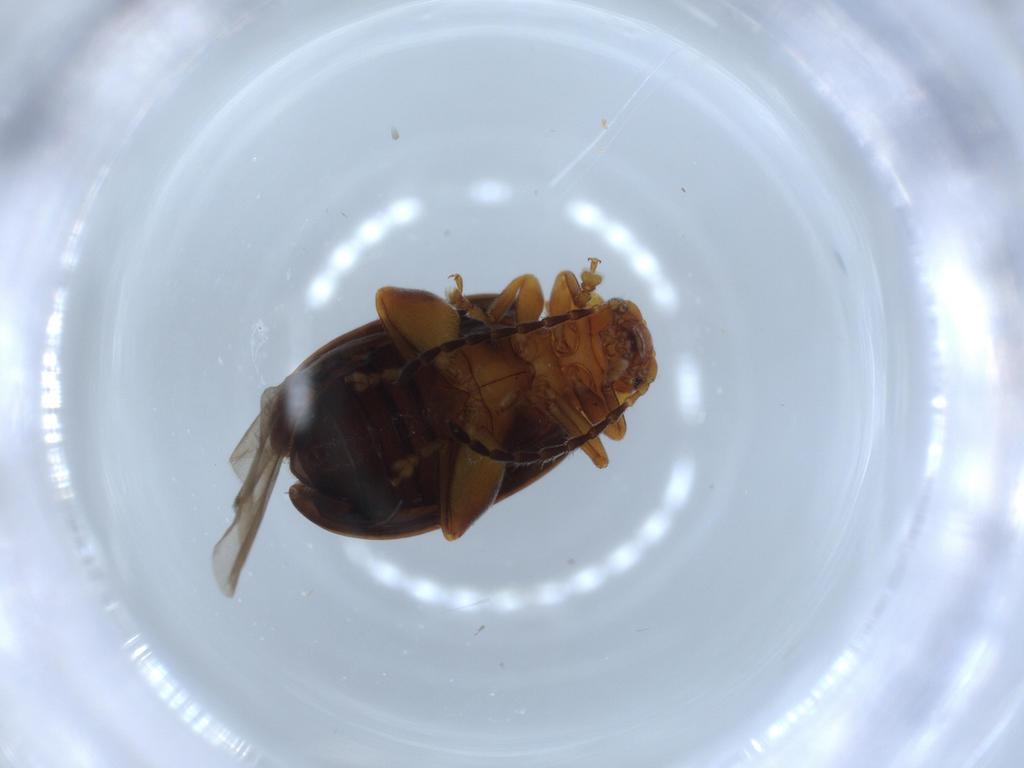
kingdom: Animalia
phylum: Arthropoda
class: Insecta
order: Coleoptera
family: Chrysomelidae
